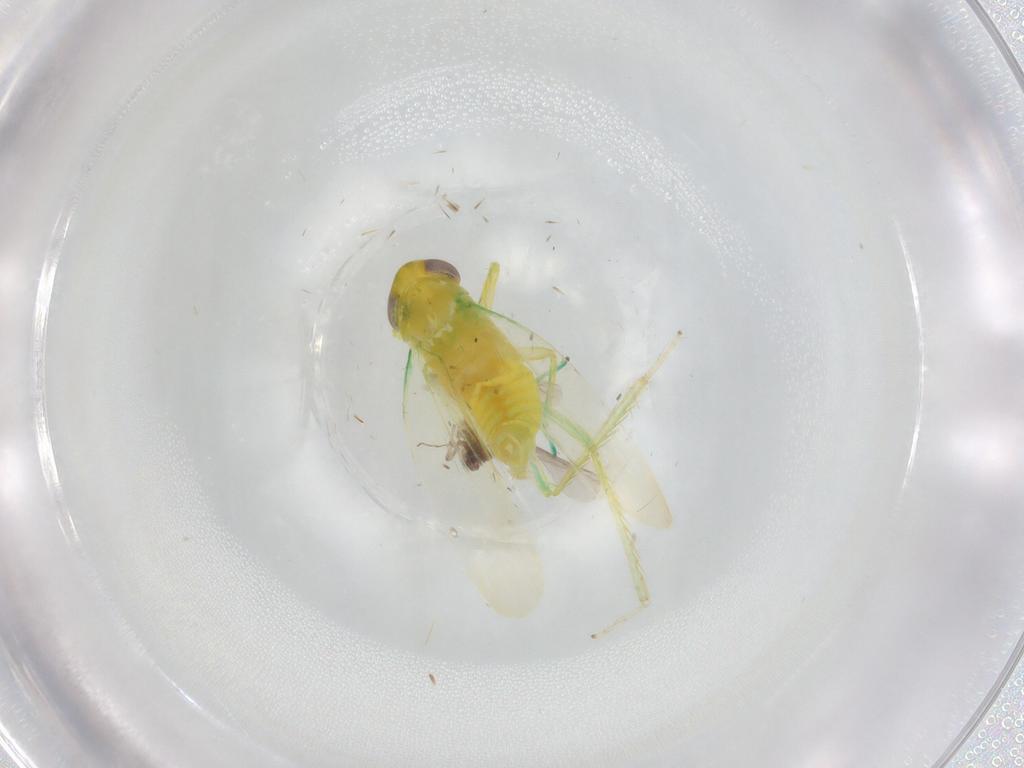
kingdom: Animalia
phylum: Arthropoda
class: Insecta
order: Hemiptera
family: Cicadellidae
